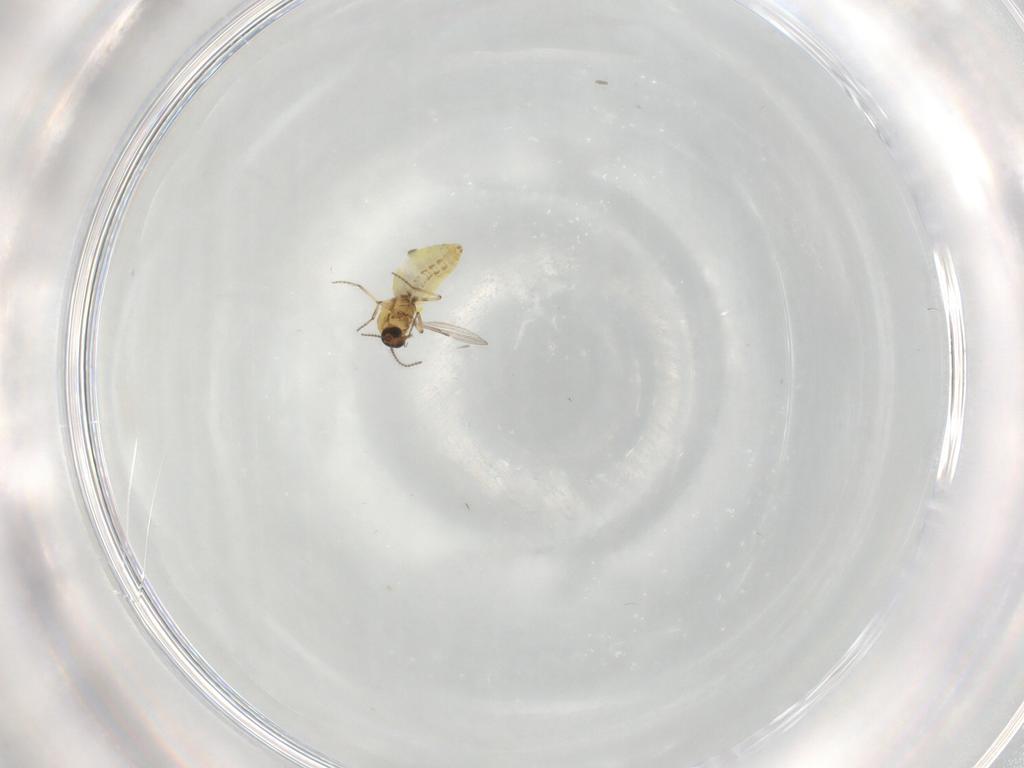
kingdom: Animalia
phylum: Arthropoda
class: Insecta
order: Diptera
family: Ceratopogonidae
